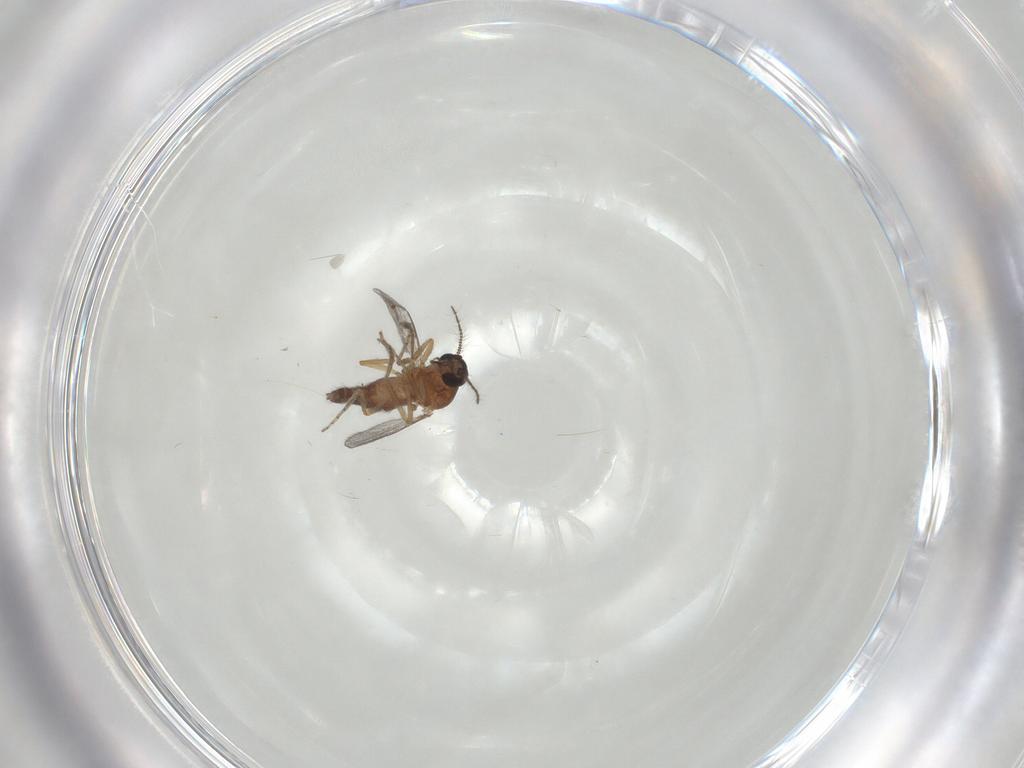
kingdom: Animalia
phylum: Arthropoda
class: Insecta
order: Diptera
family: Ceratopogonidae
